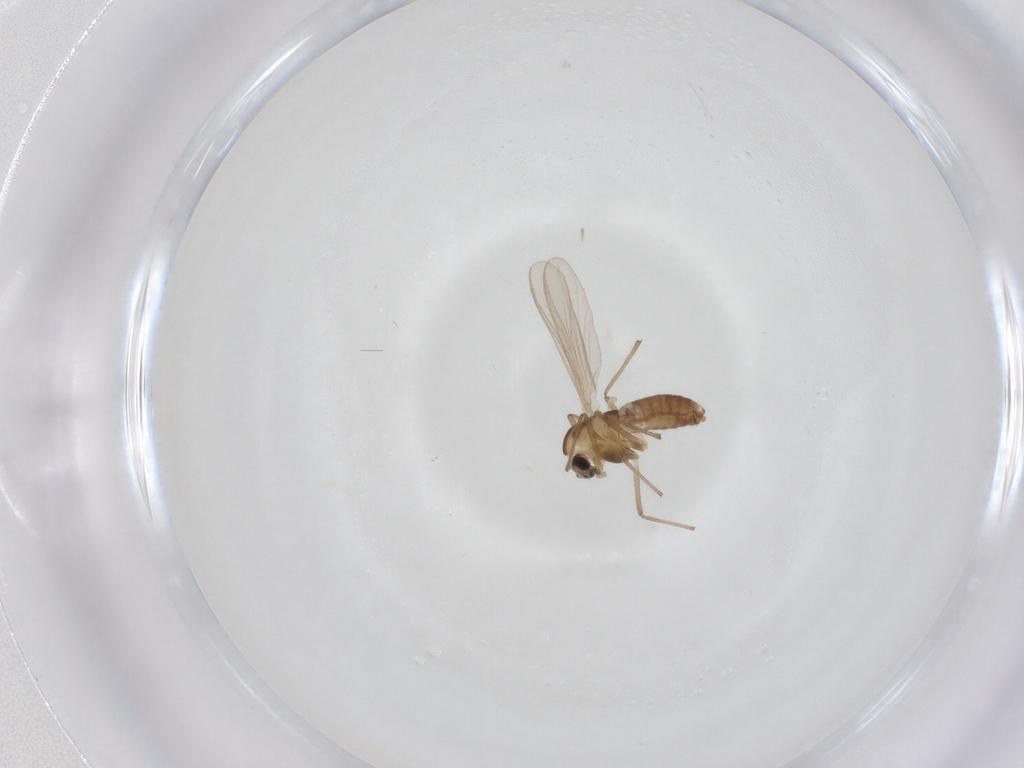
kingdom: Animalia
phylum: Arthropoda
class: Insecta
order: Diptera
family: Chironomidae
